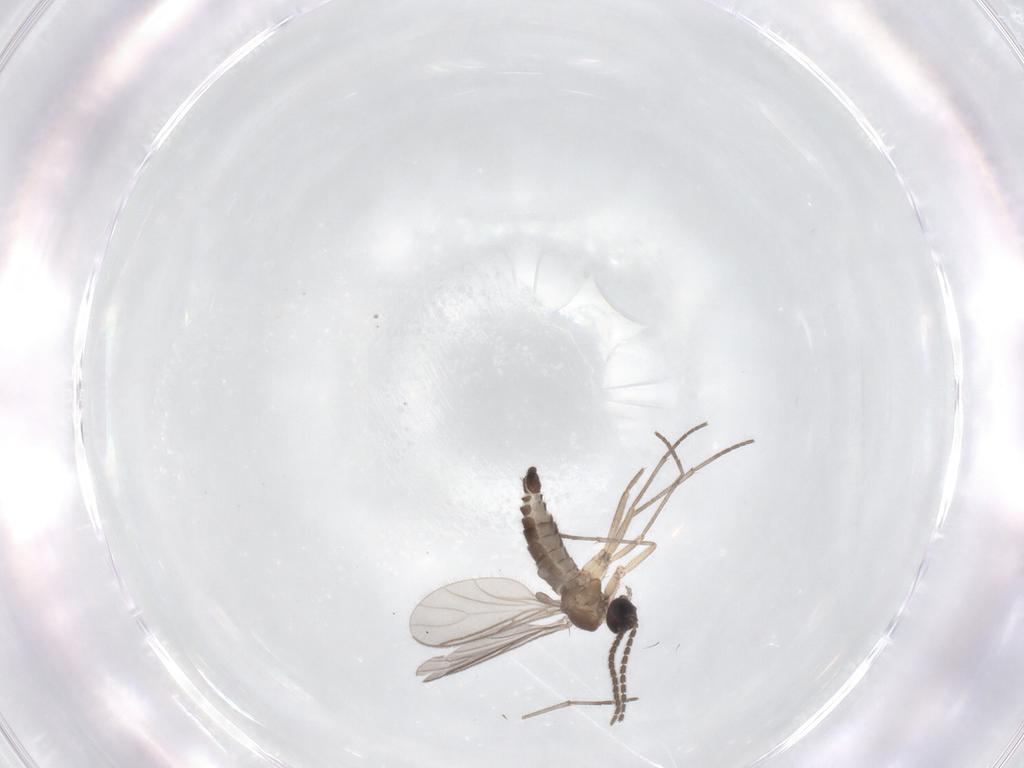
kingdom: Animalia
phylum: Arthropoda
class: Insecta
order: Diptera
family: Sciaridae
